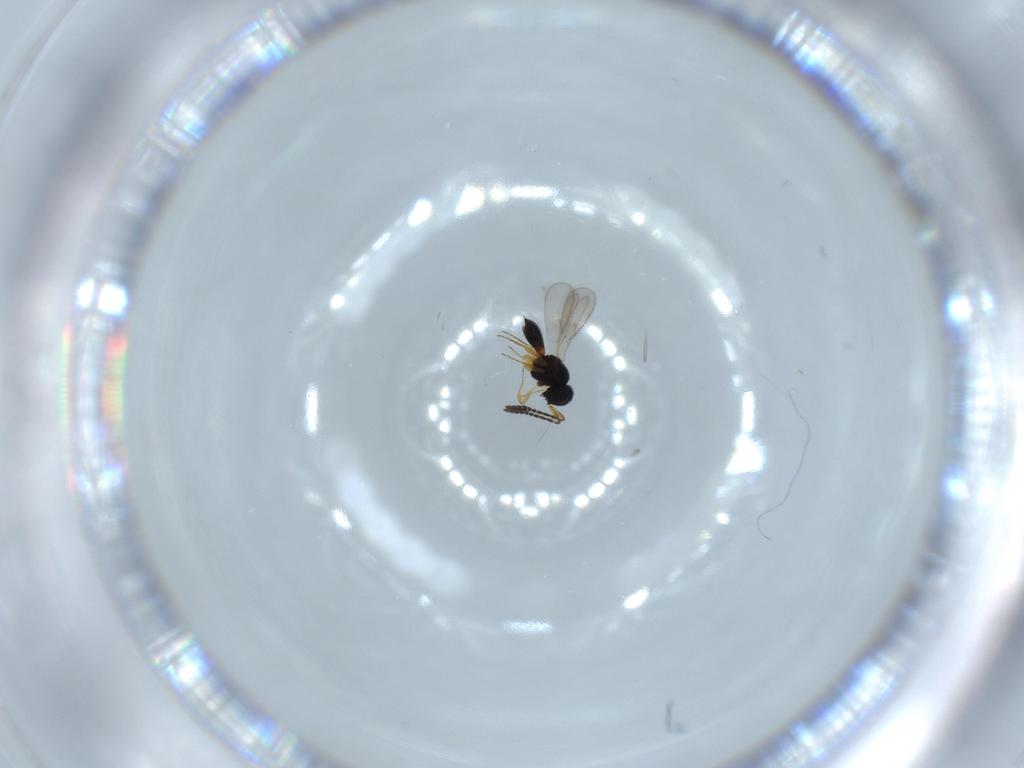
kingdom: Animalia
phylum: Arthropoda
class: Insecta
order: Hymenoptera
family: Scelionidae
